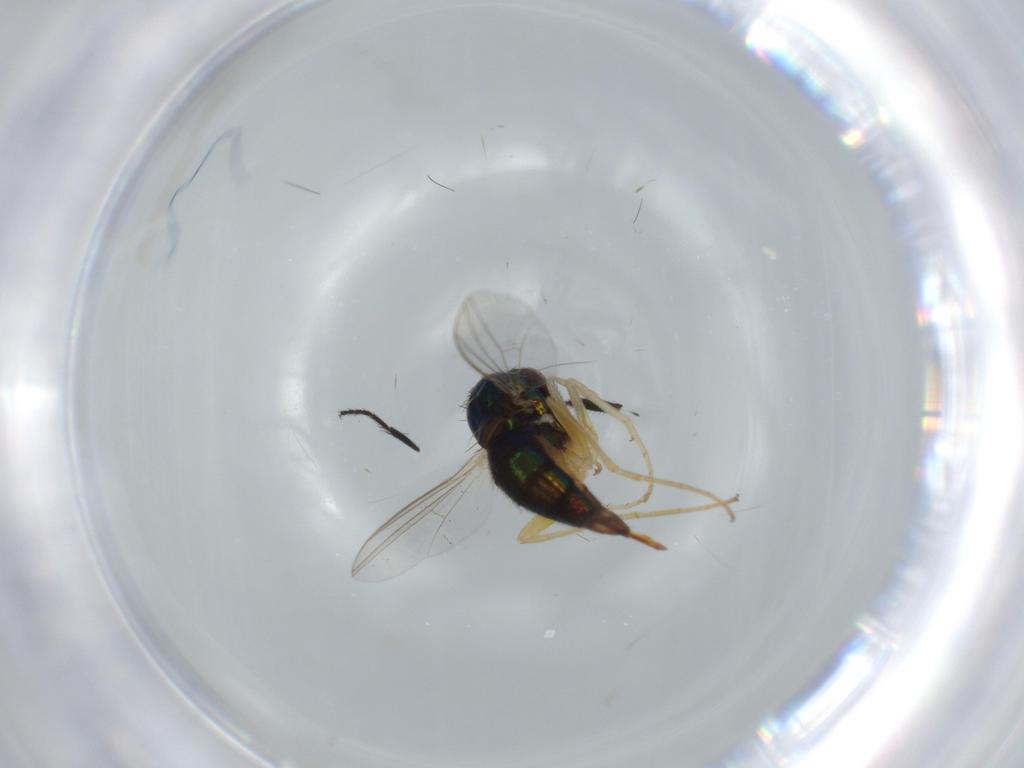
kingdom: Animalia
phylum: Arthropoda
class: Insecta
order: Diptera
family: Dolichopodidae
